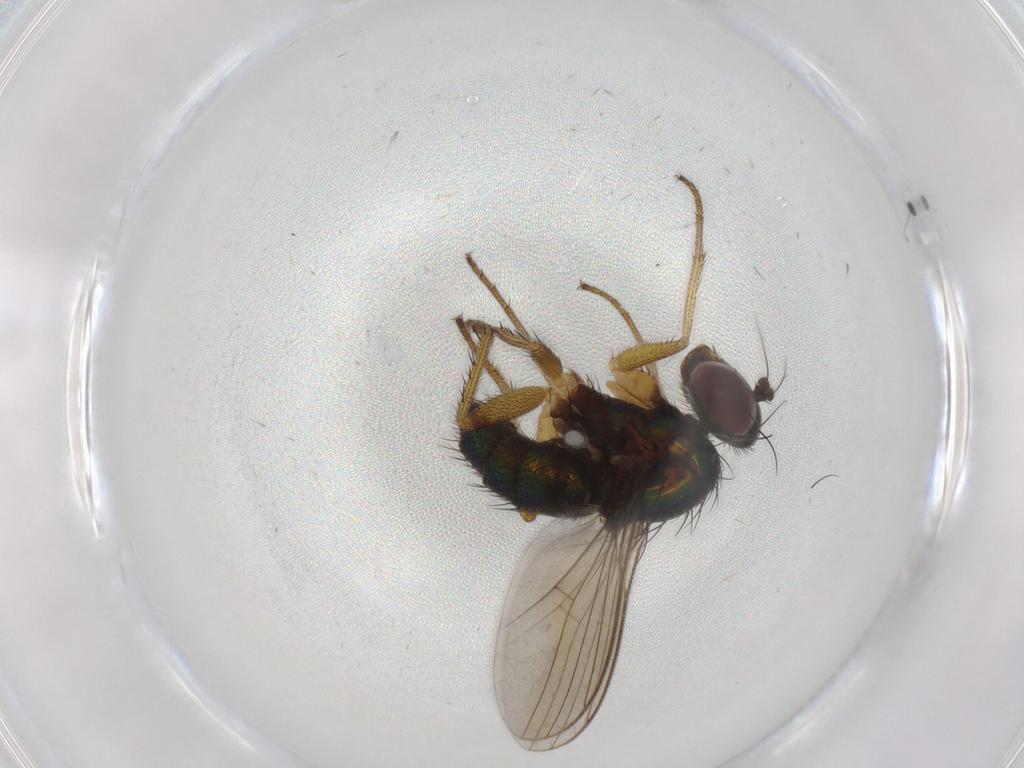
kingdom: Animalia
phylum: Arthropoda
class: Insecta
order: Diptera
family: Dolichopodidae
